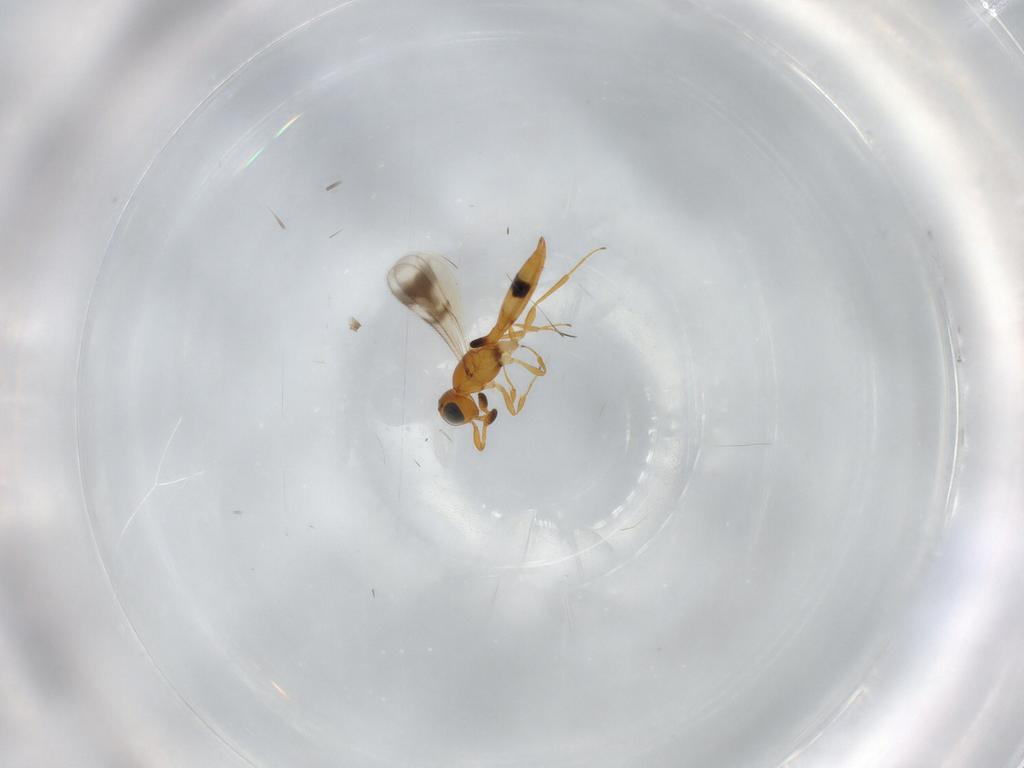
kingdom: Animalia
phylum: Arthropoda
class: Insecta
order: Hymenoptera
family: Scelionidae
